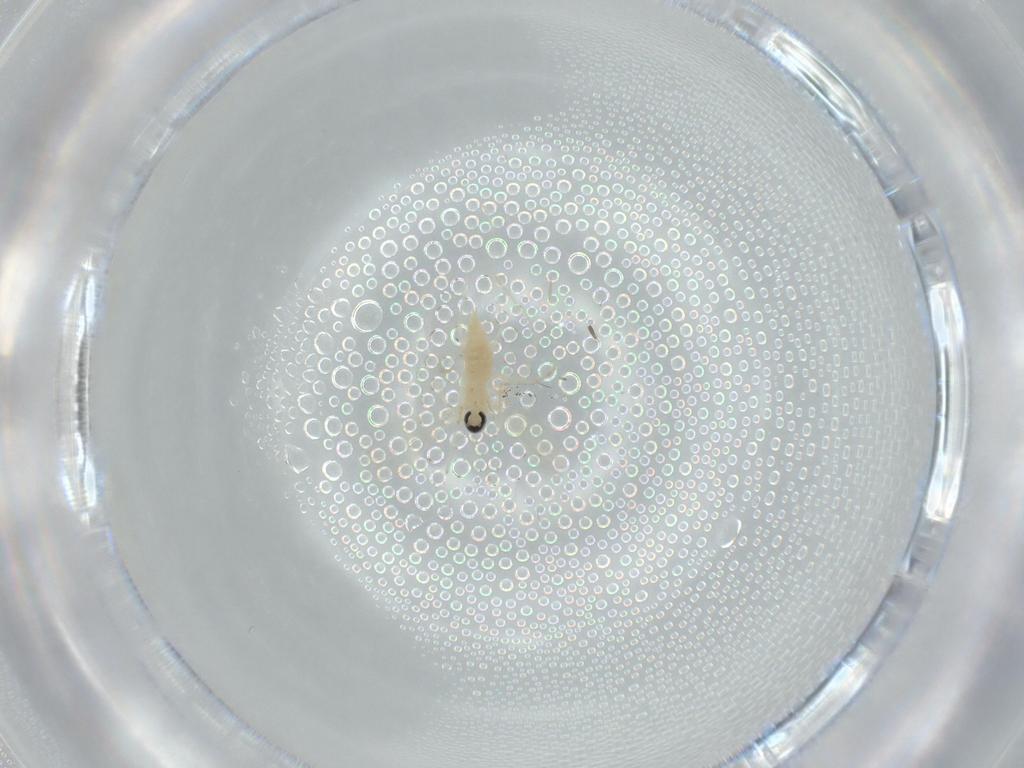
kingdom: Animalia
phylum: Arthropoda
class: Insecta
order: Diptera
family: Cecidomyiidae
